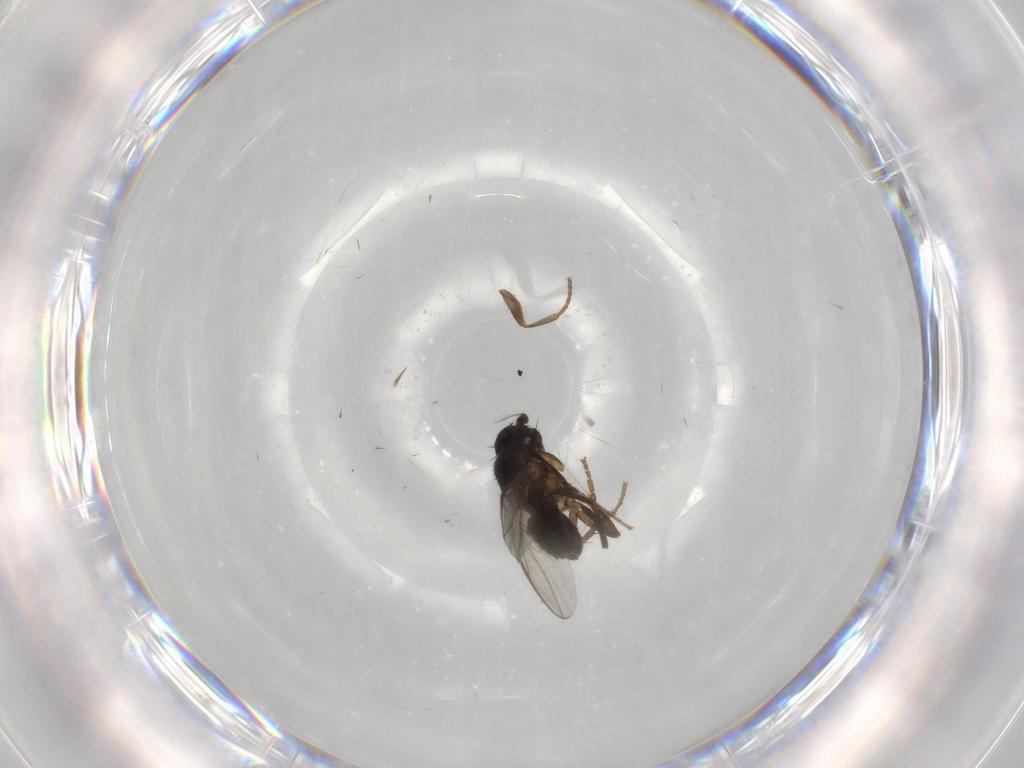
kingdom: Animalia
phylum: Arthropoda
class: Insecta
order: Diptera
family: Sphaeroceridae
